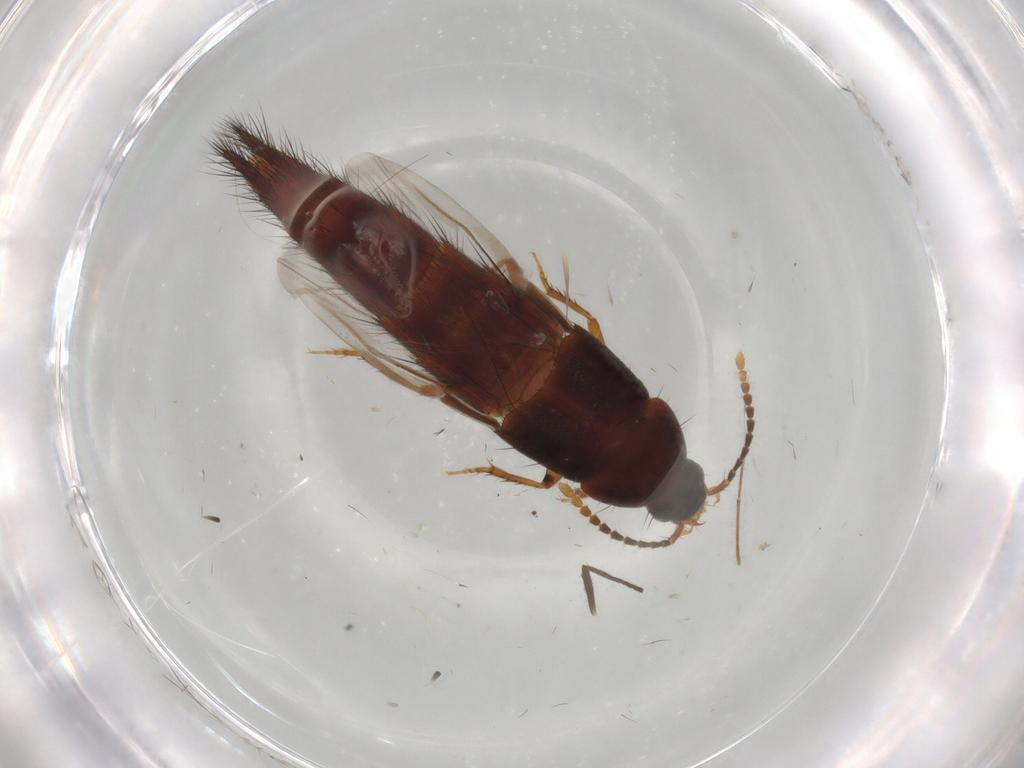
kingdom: Animalia
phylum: Arthropoda
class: Insecta
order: Coleoptera
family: Staphylinidae
